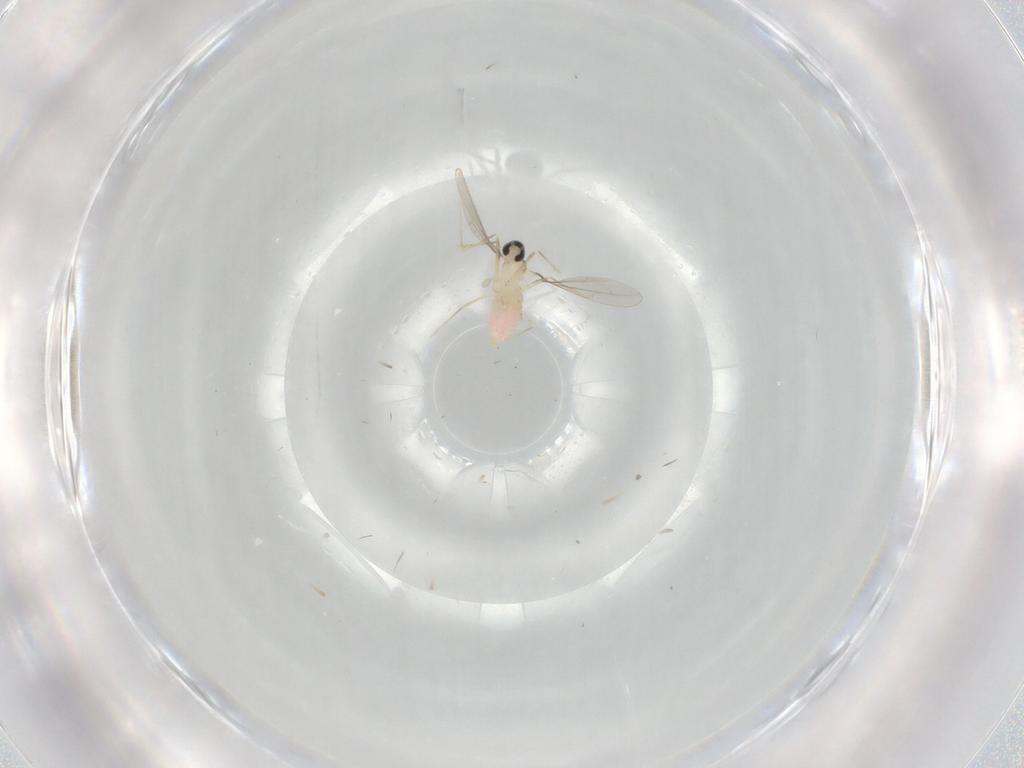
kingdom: Animalia
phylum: Arthropoda
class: Insecta
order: Diptera
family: Cecidomyiidae
